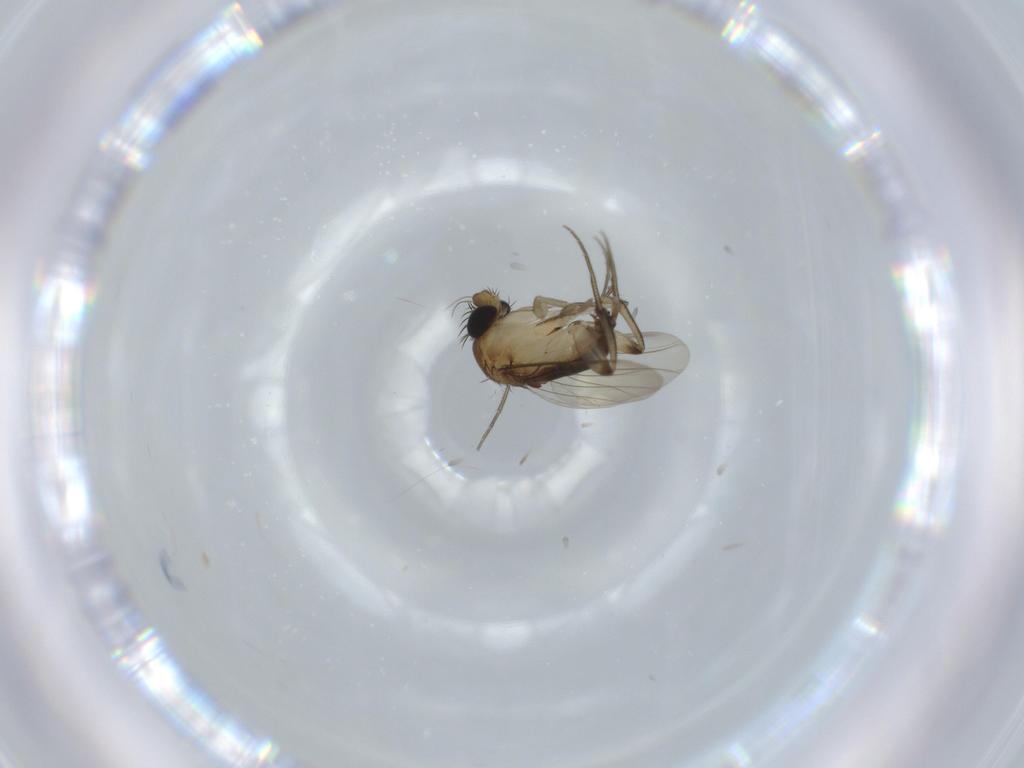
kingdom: Animalia
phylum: Arthropoda
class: Insecta
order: Diptera
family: Phoridae
